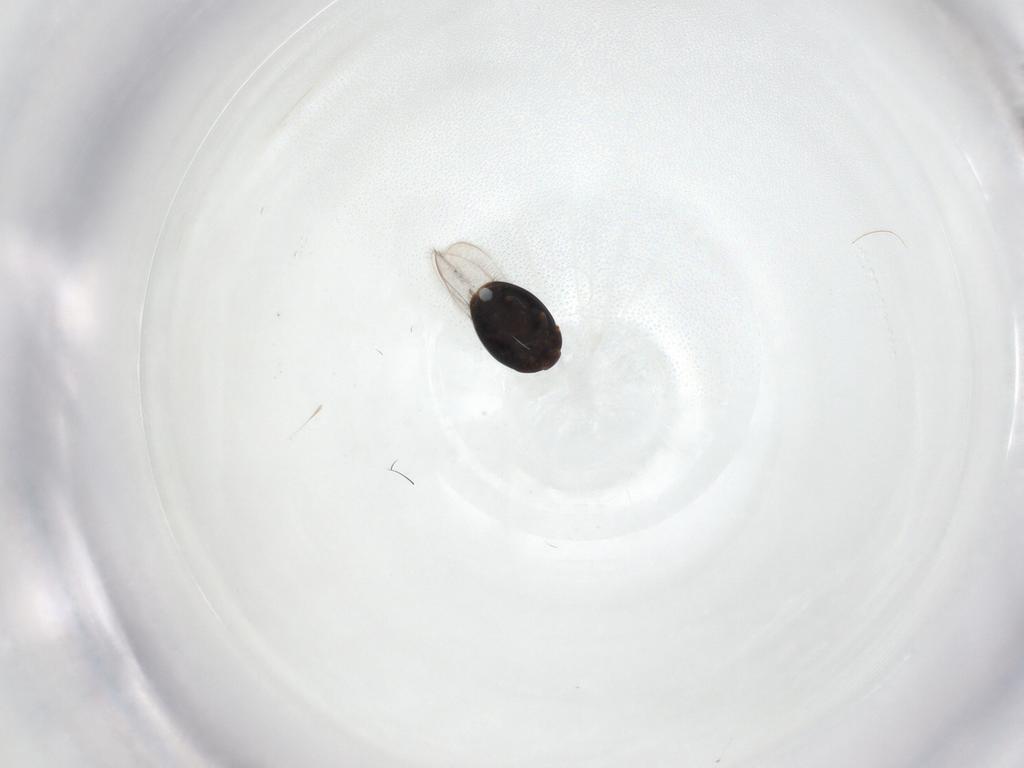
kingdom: Animalia
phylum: Arthropoda
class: Insecta
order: Coleoptera
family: Corylophidae
